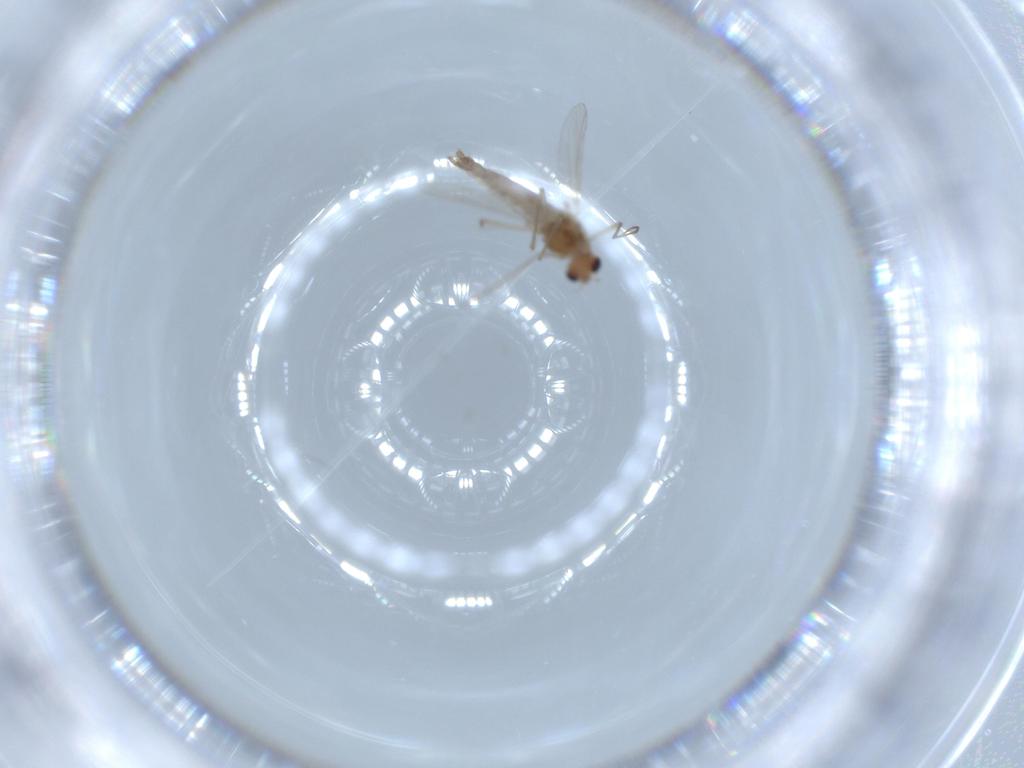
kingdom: Animalia
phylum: Arthropoda
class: Insecta
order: Diptera
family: Chironomidae
